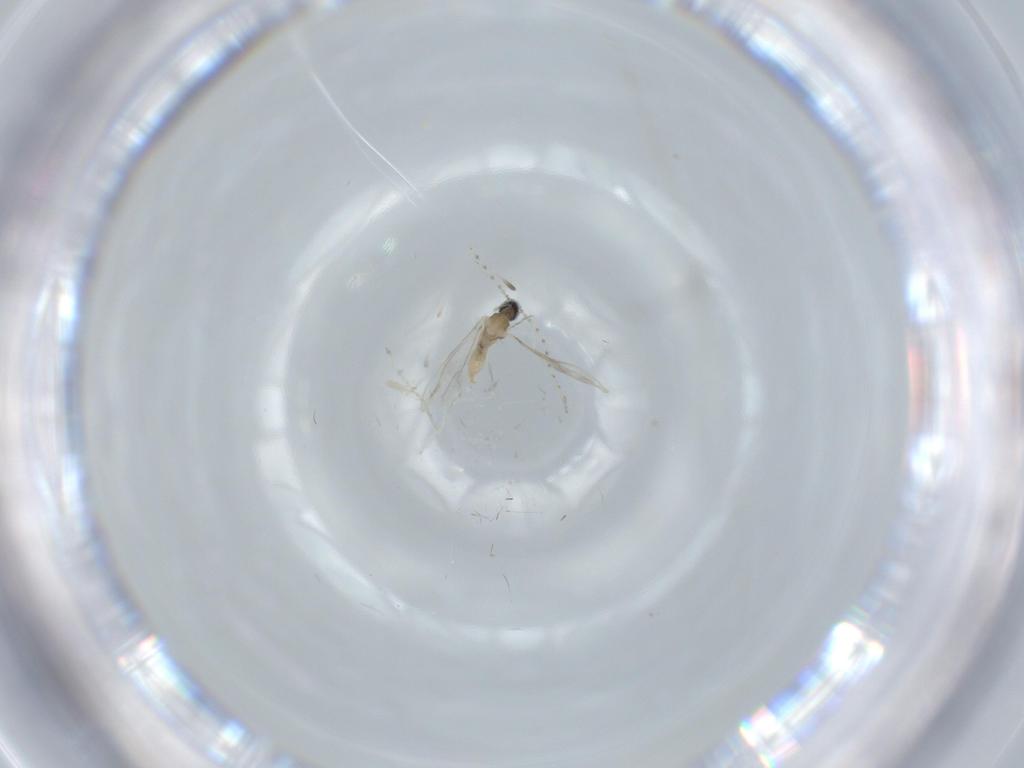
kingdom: Animalia
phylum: Arthropoda
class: Insecta
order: Diptera
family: Cecidomyiidae
